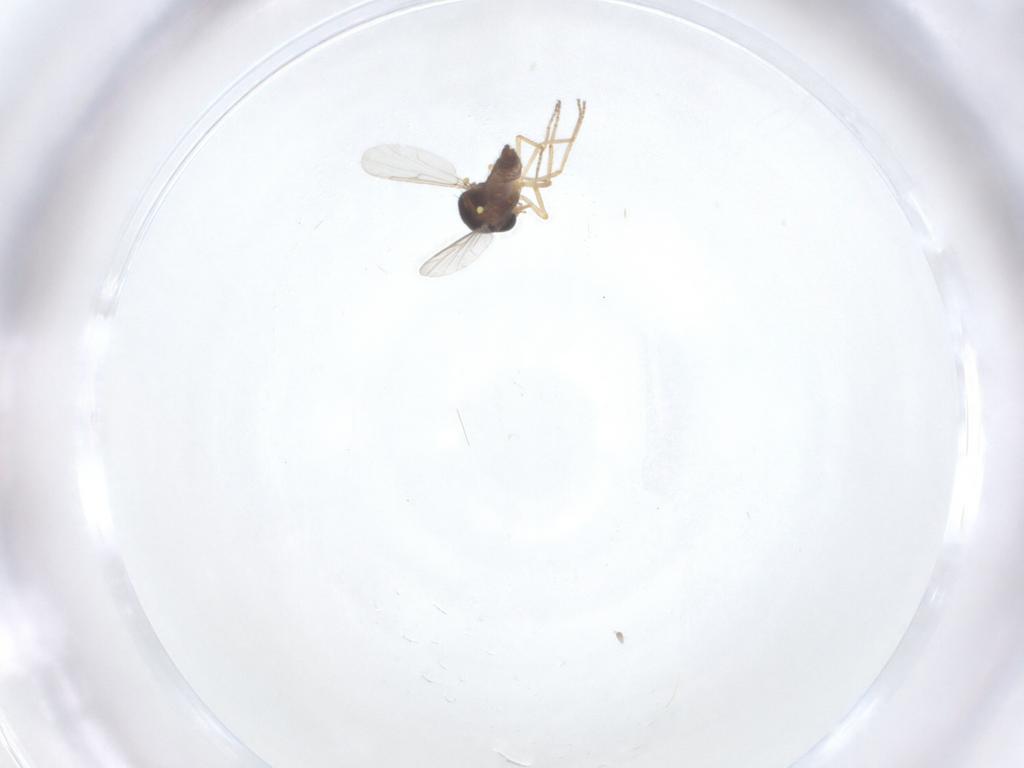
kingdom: Animalia
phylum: Arthropoda
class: Insecta
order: Diptera
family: Ceratopogonidae
